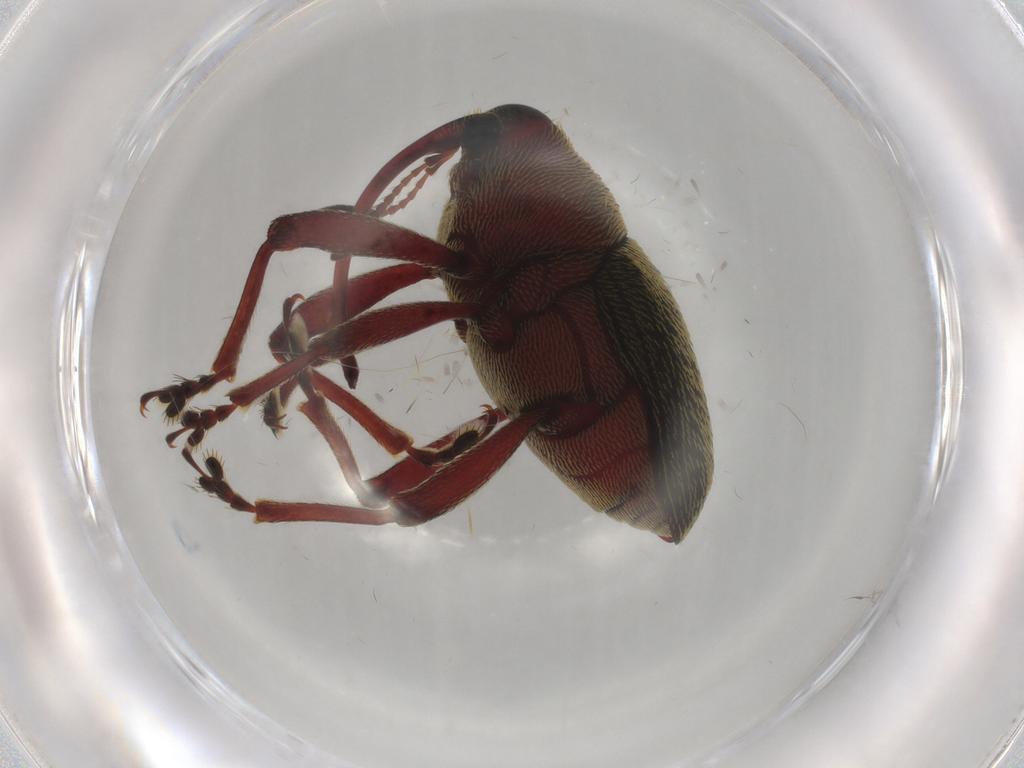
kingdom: Animalia
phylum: Arthropoda
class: Insecta
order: Coleoptera
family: Curculionidae
